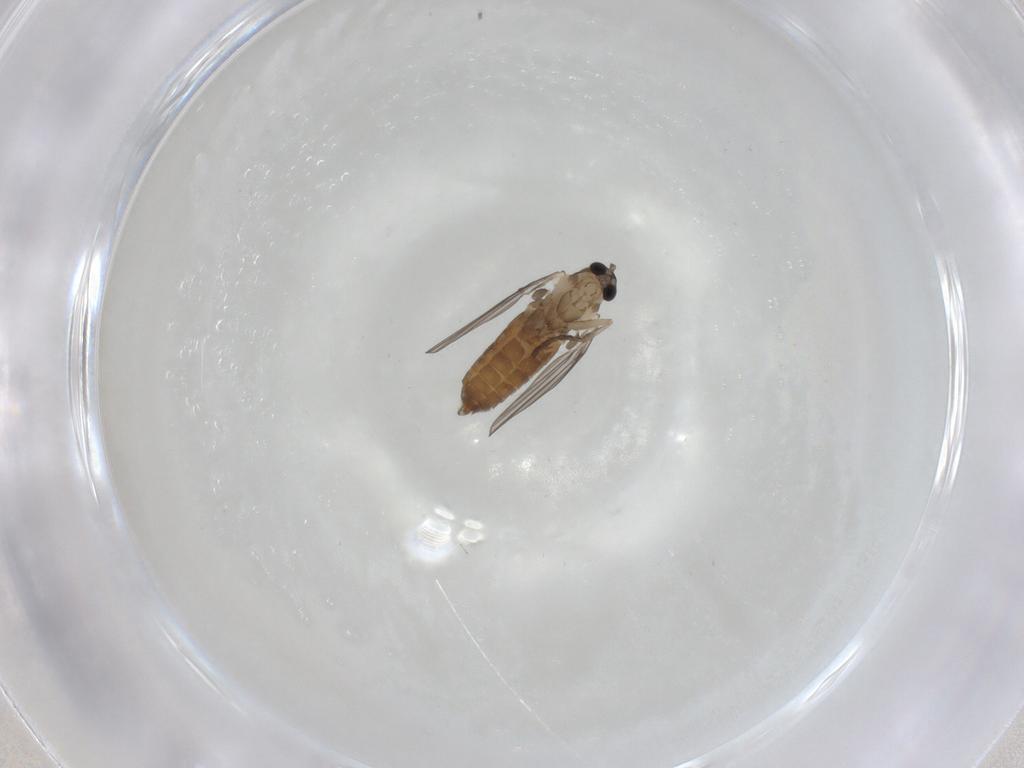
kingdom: Animalia
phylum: Arthropoda
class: Insecta
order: Diptera
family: Psychodidae
